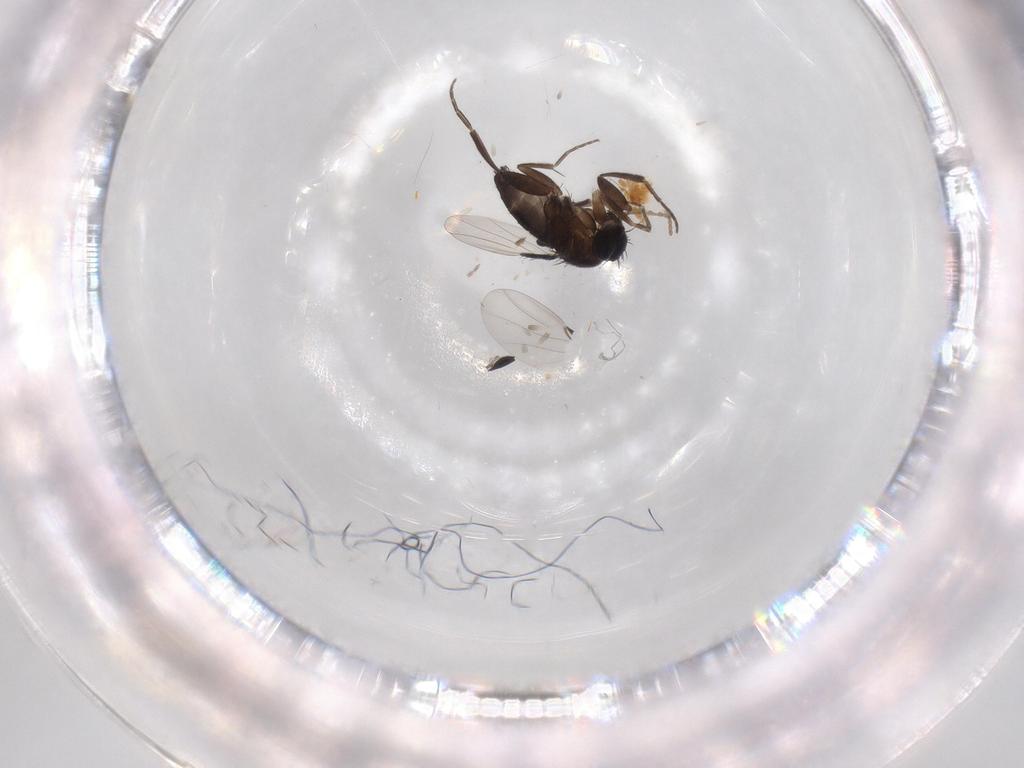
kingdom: Animalia
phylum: Arthropoda
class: Insecta
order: Diptera
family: Phoridae
